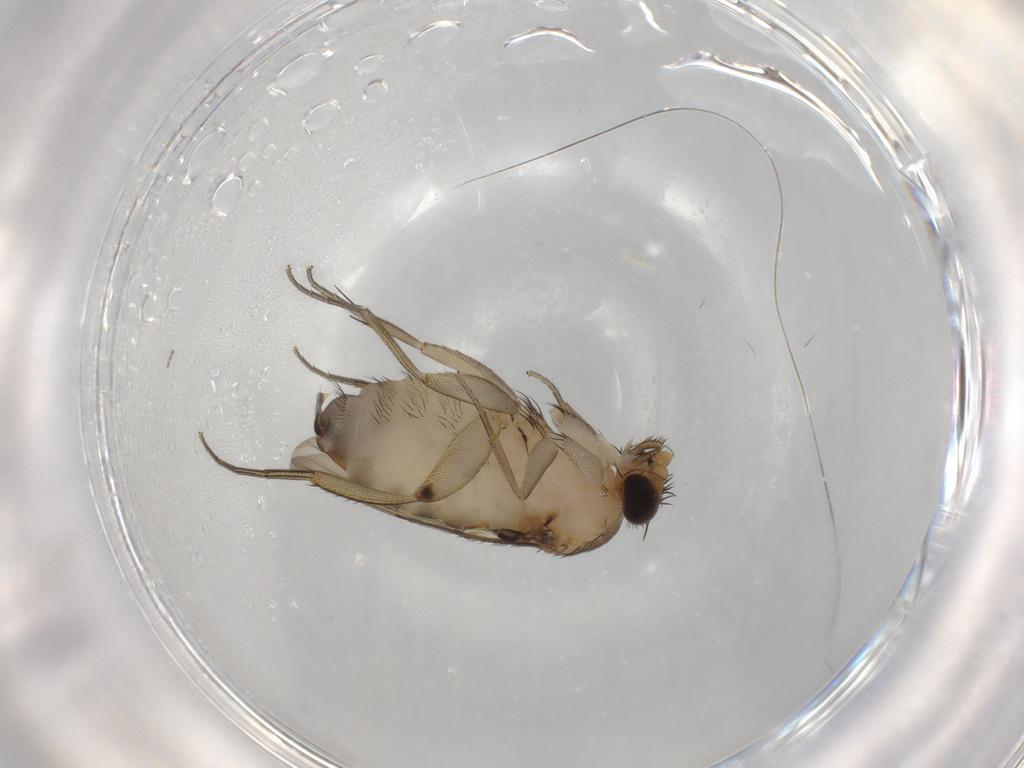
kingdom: Animalia
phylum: Arthropoda
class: Insecta
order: Diptera
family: Phoridae
